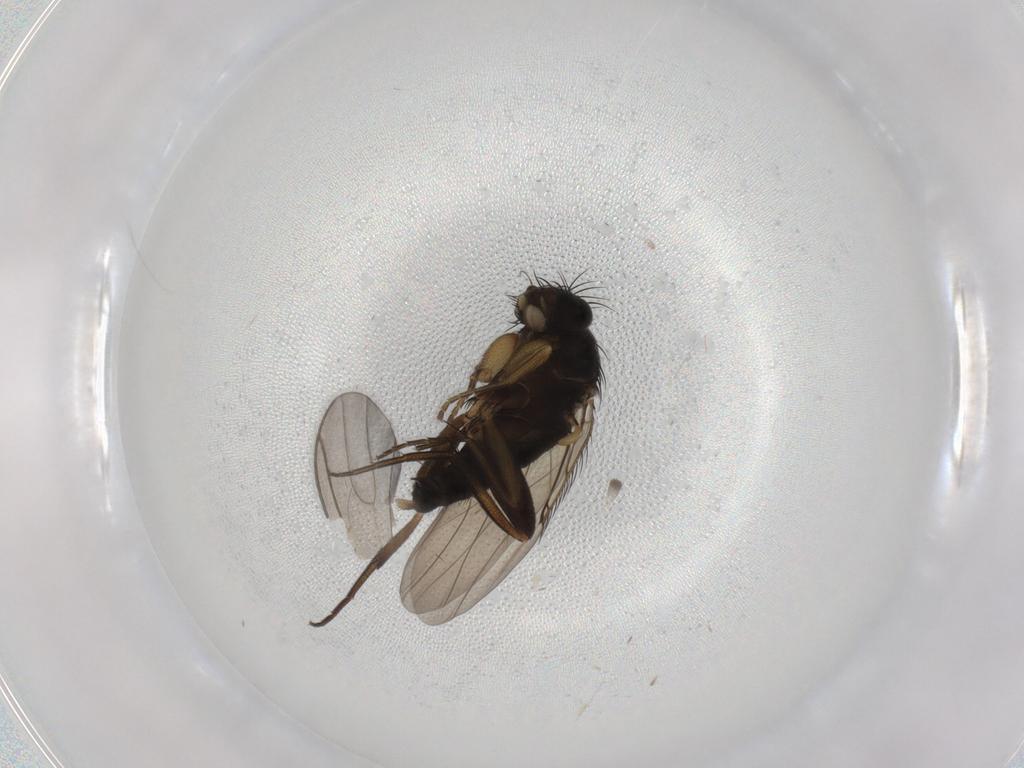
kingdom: Animalia
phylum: Arthropoda
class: Insecta
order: Diptera
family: Phoridae
